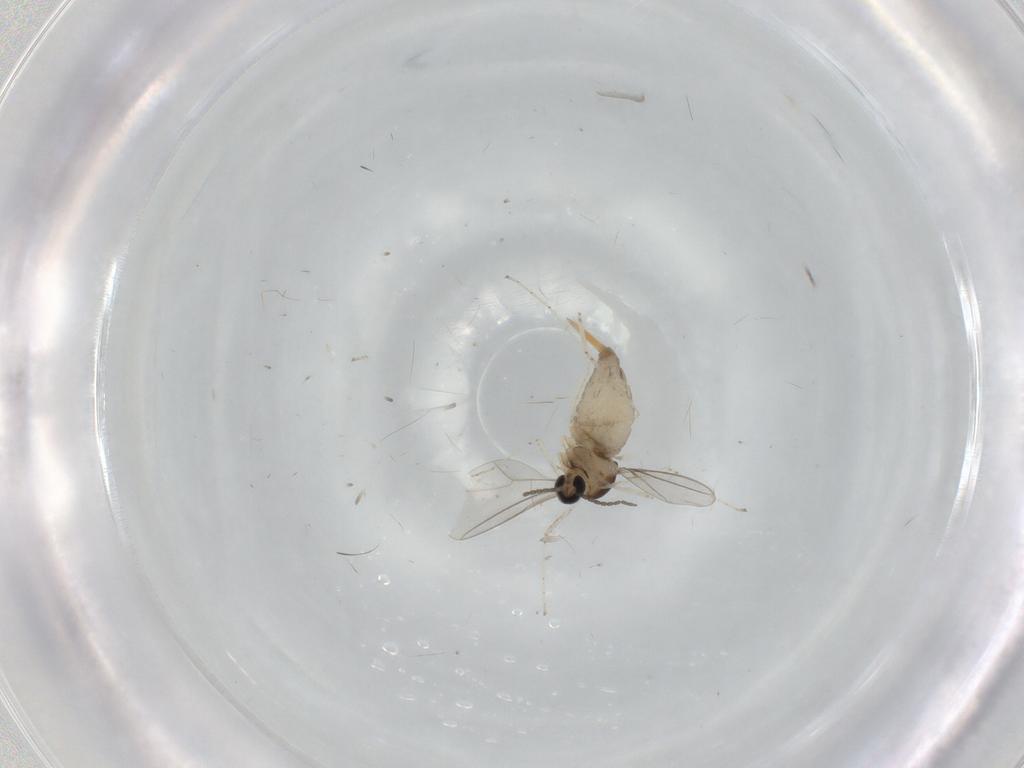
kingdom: Animalia
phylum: Arthropoda
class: Insecta
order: Diptera
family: Cecidomyiidae
